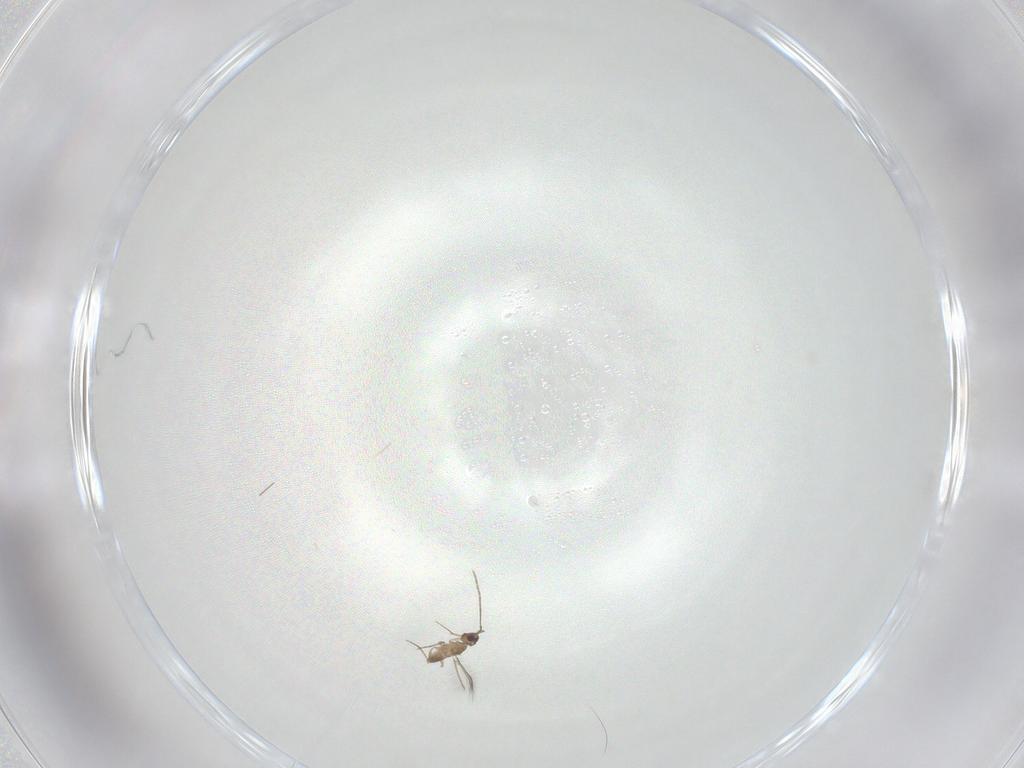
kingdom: Animalia
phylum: Arthropoda
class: Insecta
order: Hymenoptera
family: Mymaridae
